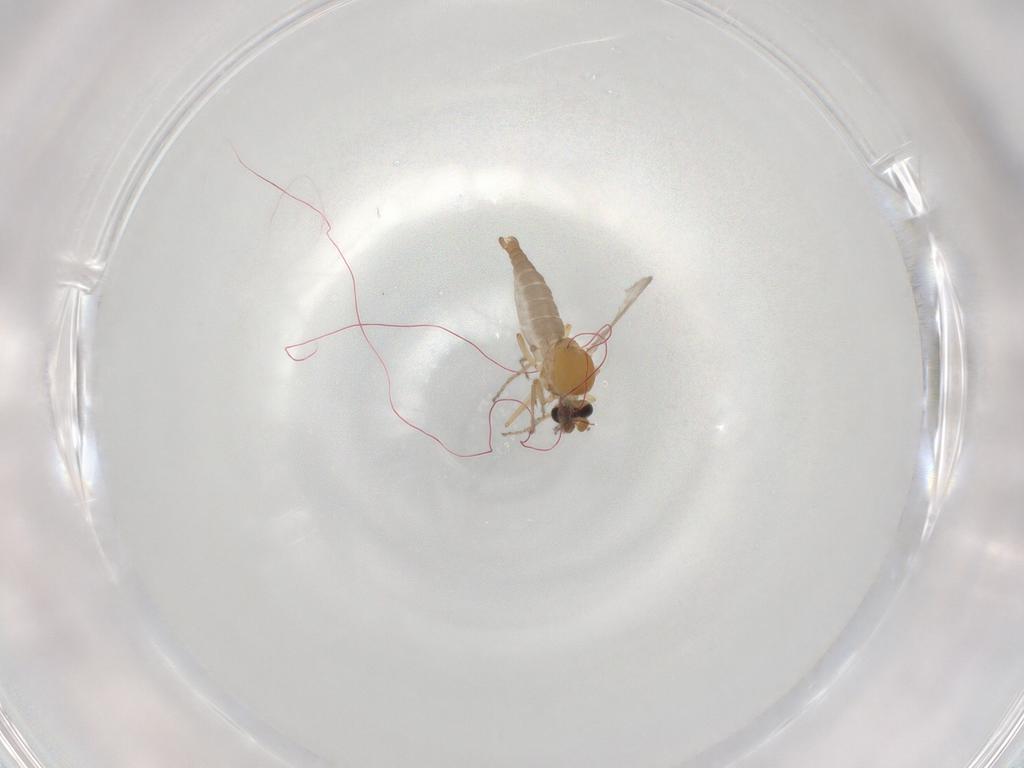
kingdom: Animalia
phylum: Arthropoda
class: Insecta
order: Diptera
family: Ceratopogonidae
